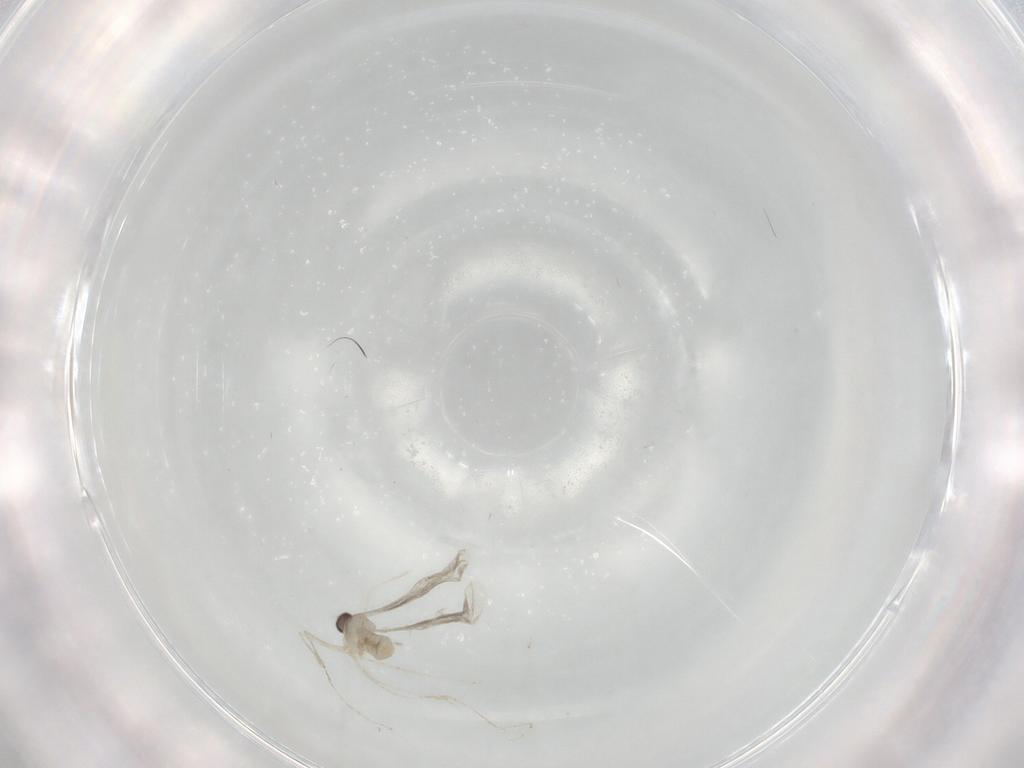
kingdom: Animalia
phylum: Arthropoda
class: Insecta
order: Diptera
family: Cecidomyiidae
